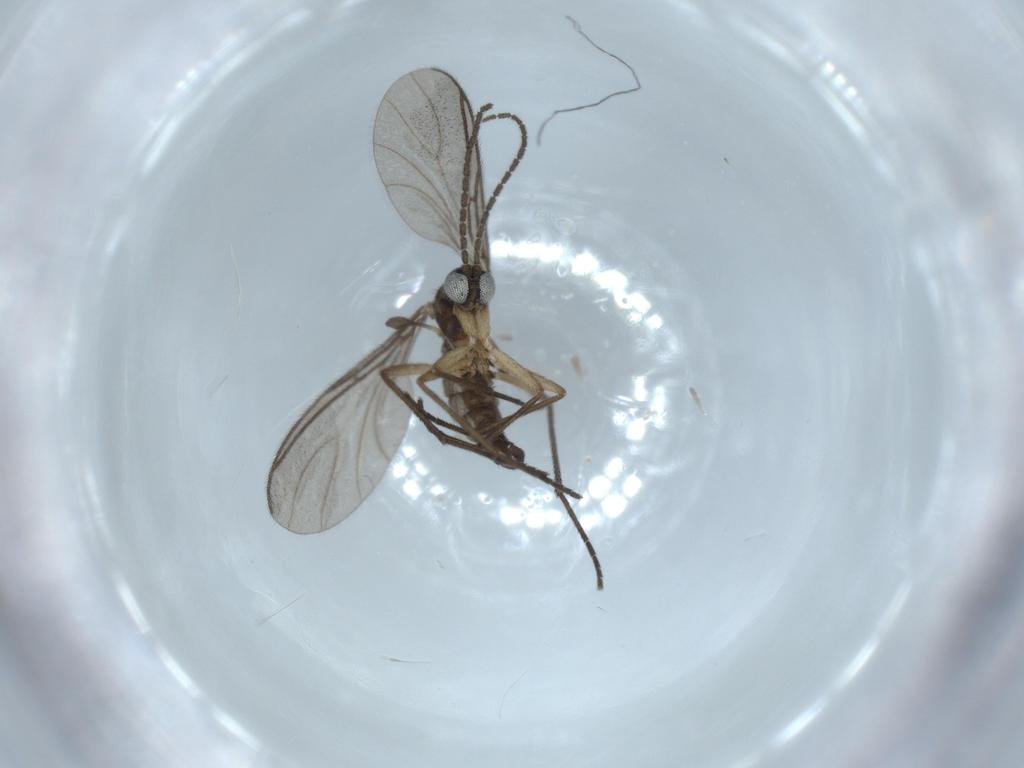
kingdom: Animalia
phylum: Arthropoda
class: Insecta
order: Diptera
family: Sciaridae
